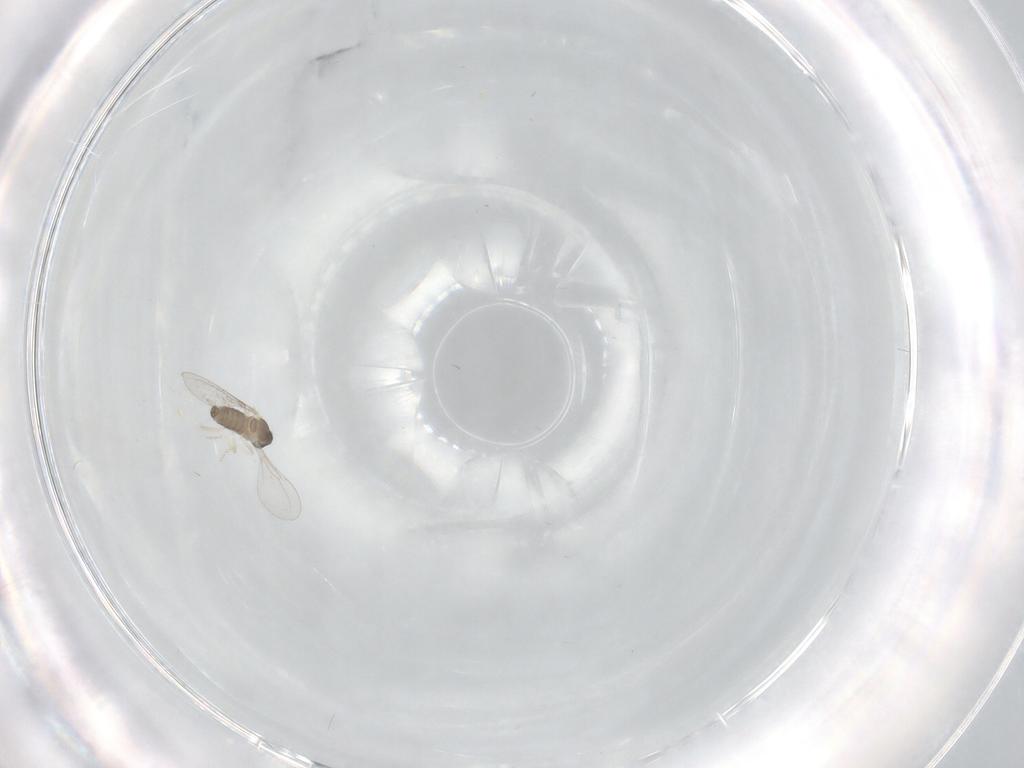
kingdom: Animalia
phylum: Arthropoda
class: Insecta
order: Diptera
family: Cecidomyiidae
